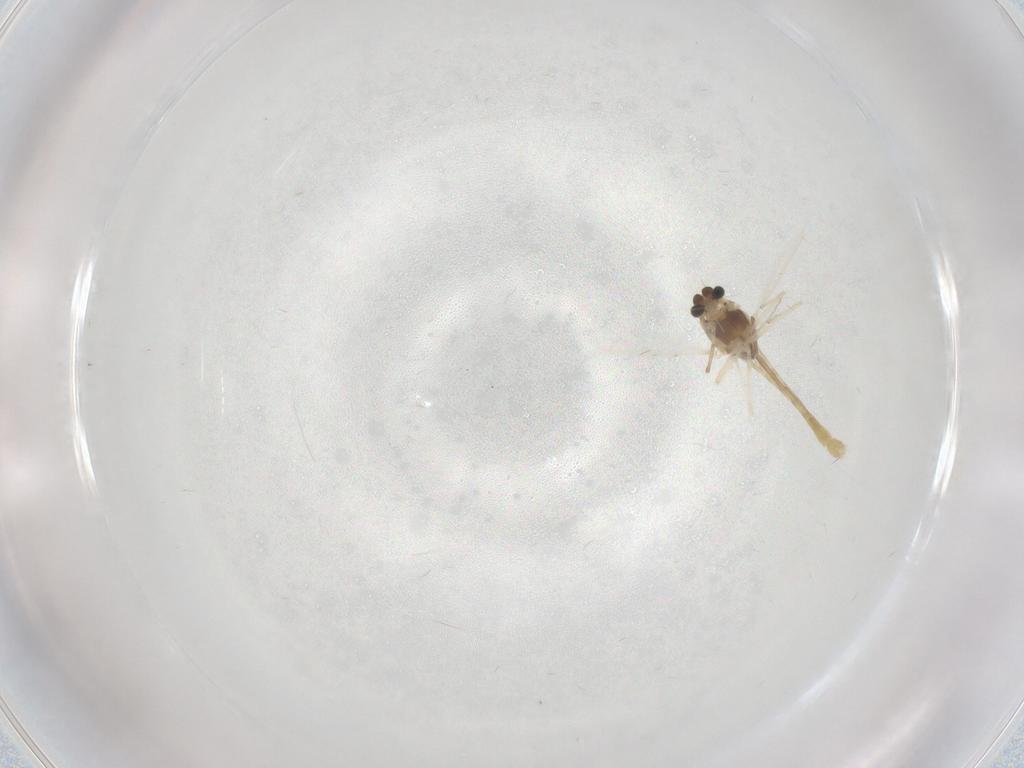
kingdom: Animalia
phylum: Arthropoda
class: Insecta
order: Diptera
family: Chironomidae
